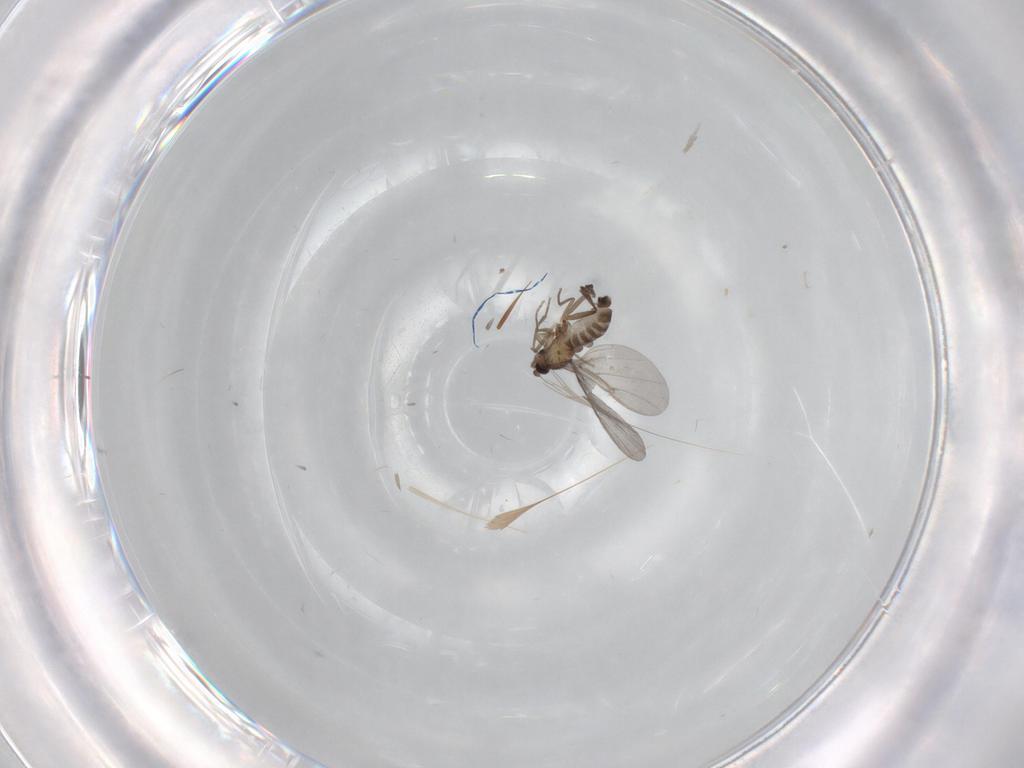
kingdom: Animalia
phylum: Arthropoda
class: Insecta
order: Diptera
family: Phoridae
